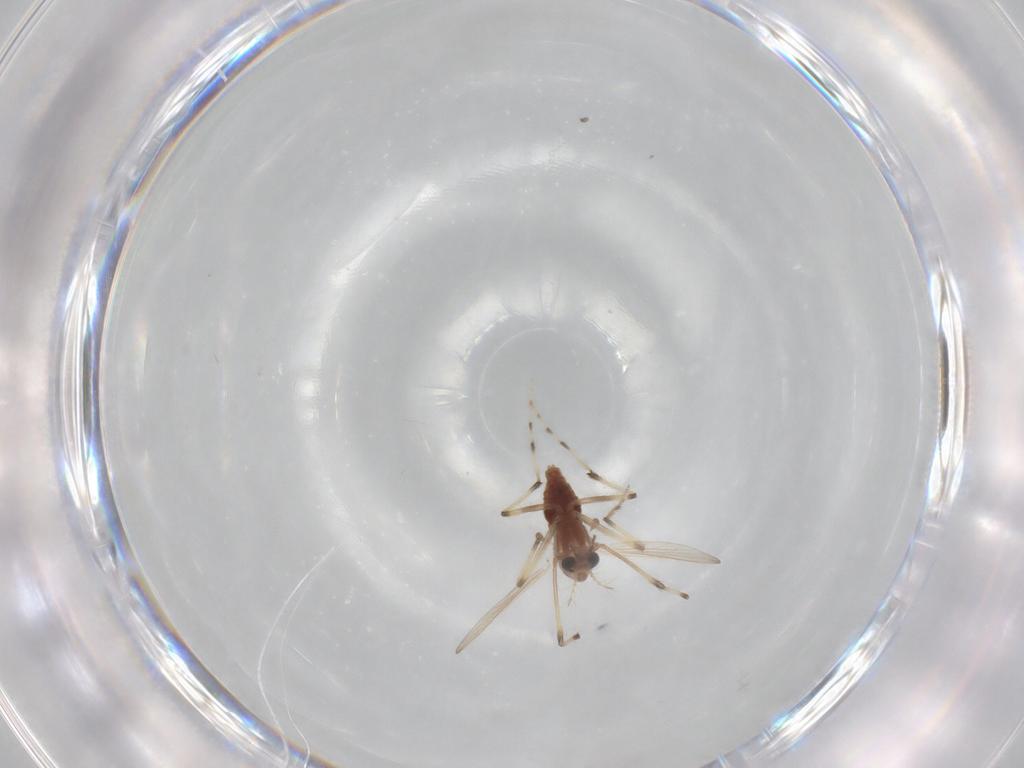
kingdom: Animalia
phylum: Arthropoda
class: Insecta
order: Diptera
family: Chironomidae
